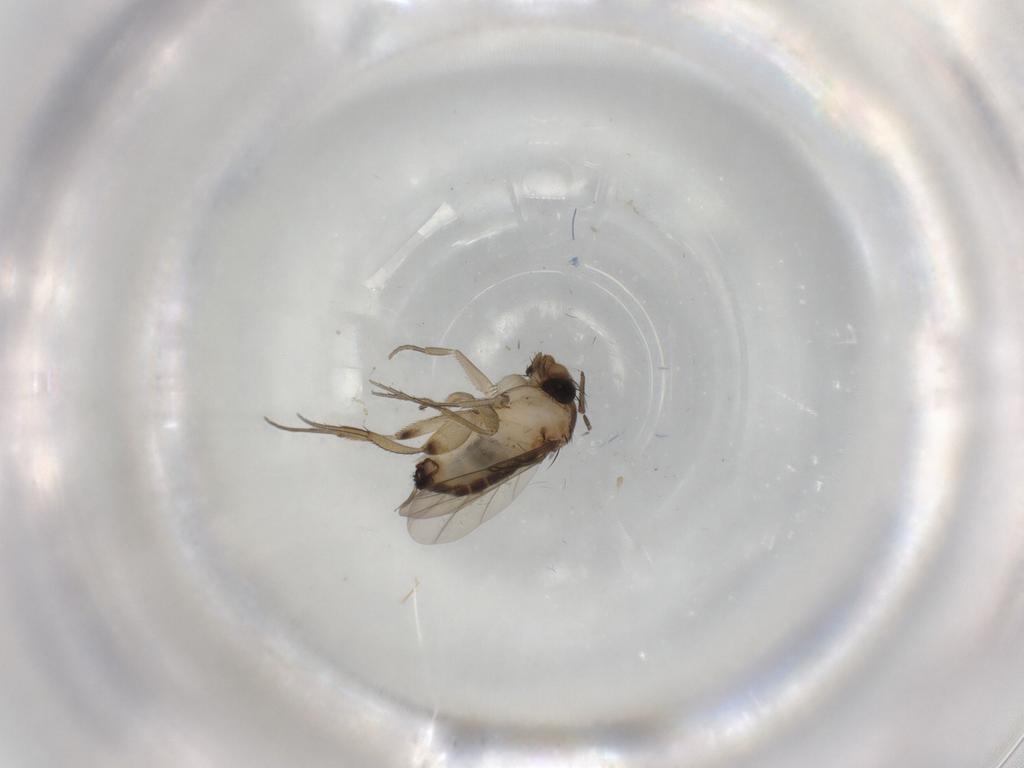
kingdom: Animalia
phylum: Arthropoda
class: Insecta
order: Diptera
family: Phoridae
